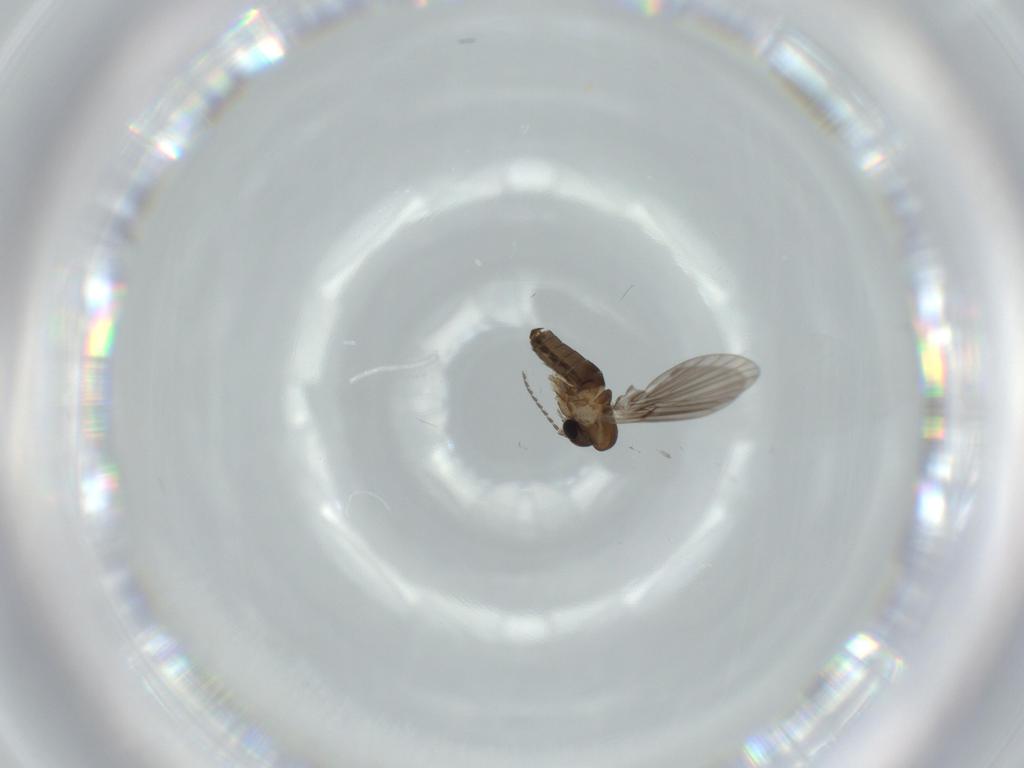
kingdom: Animalia
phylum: Arthropoda
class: Insecta
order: Diptera
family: Psychodidae
